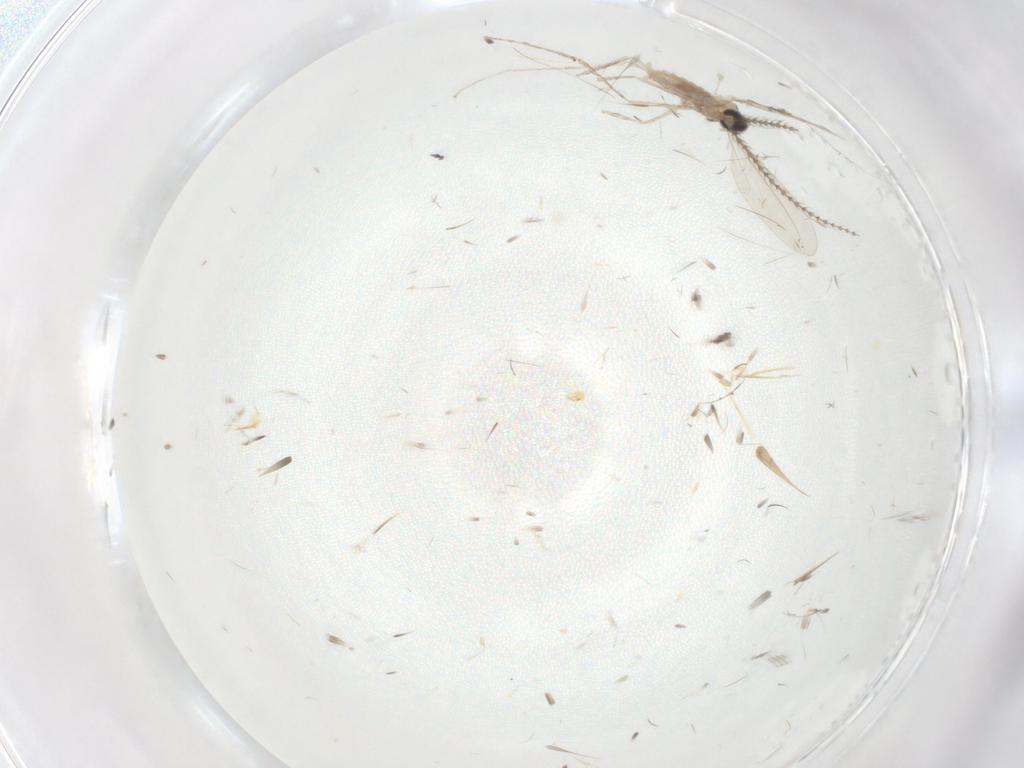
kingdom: Animalia
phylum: Arthropoda
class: Insecta
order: Diptera
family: Cecidomyiidae
